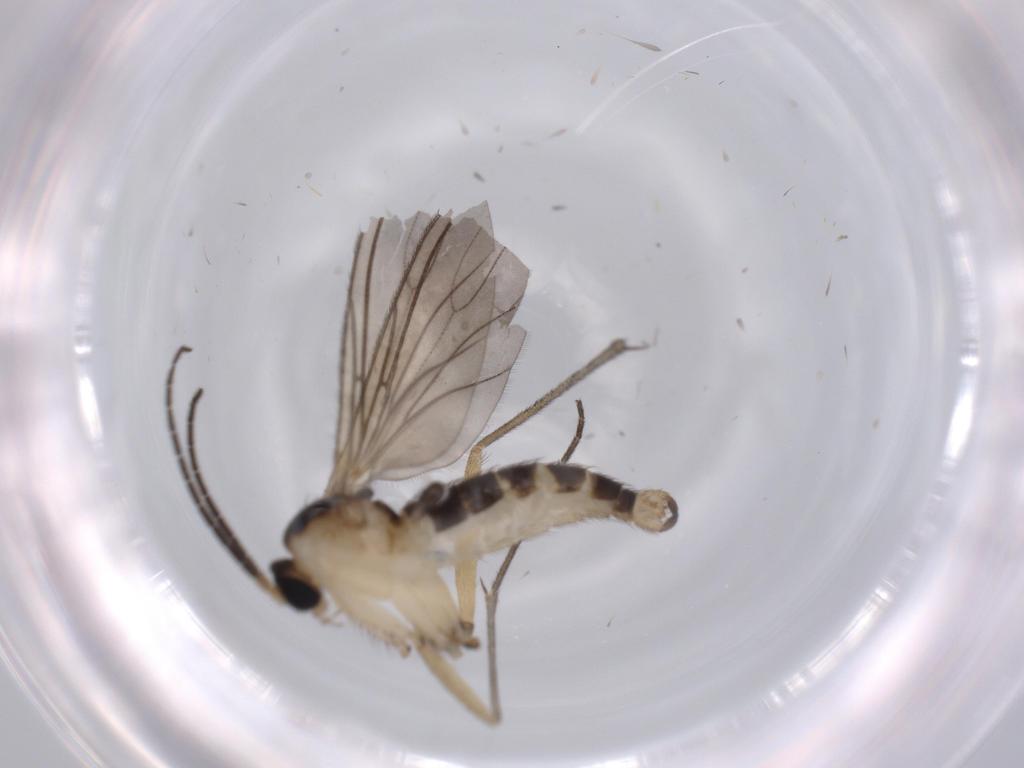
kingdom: Animalia
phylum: Arthropoda
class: Insecta
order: Diptera
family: Sciaridae
